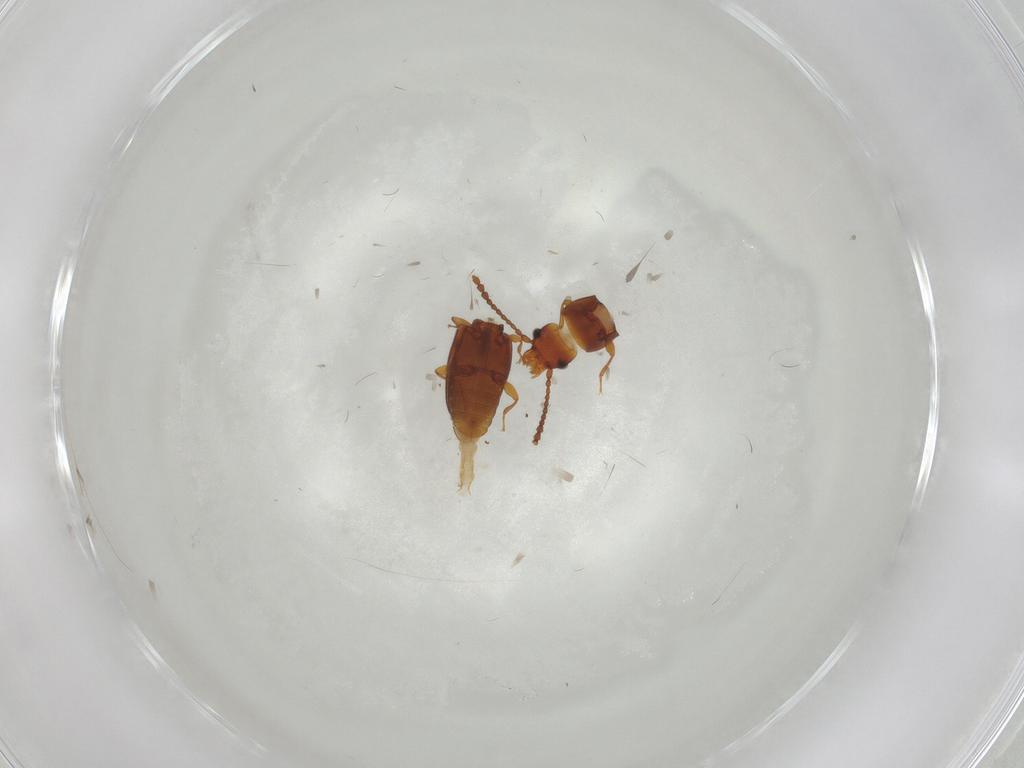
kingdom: Animalia
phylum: Arthropoda
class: Insecta
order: Coleoptera
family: Laemophloeidae
